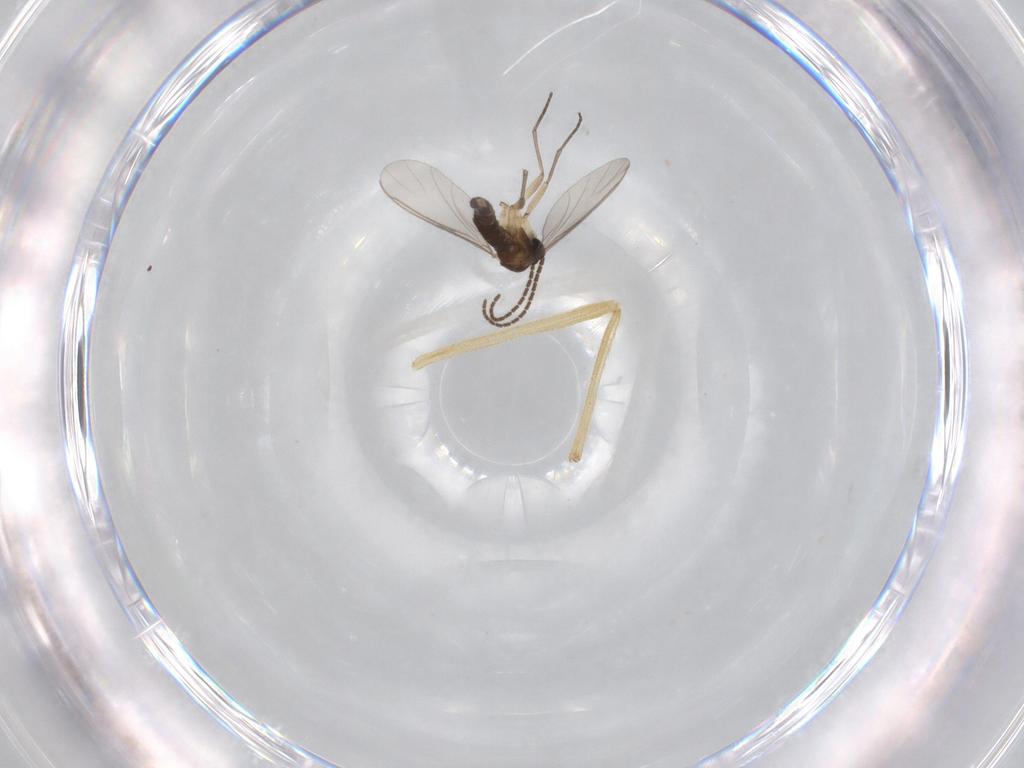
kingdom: Animalia
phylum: Arthropoda
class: Insecta
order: Diptera
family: Sciaridae
